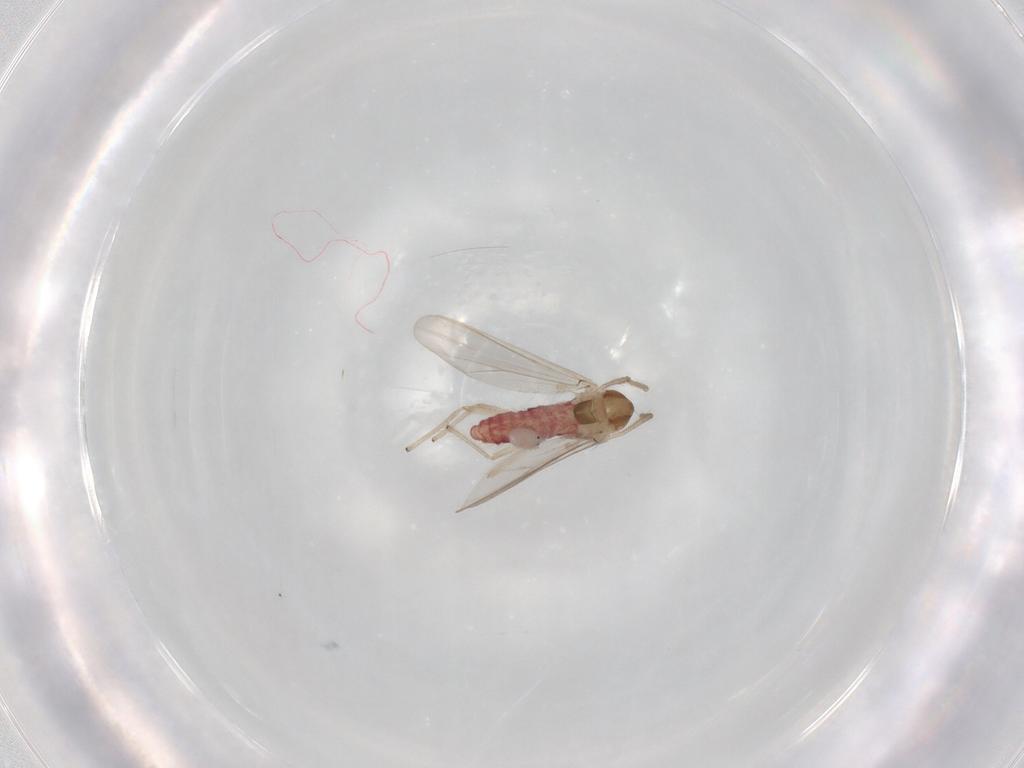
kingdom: Animalia
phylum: Arthropoda
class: Insecta
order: Diptera
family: Chironomidae
